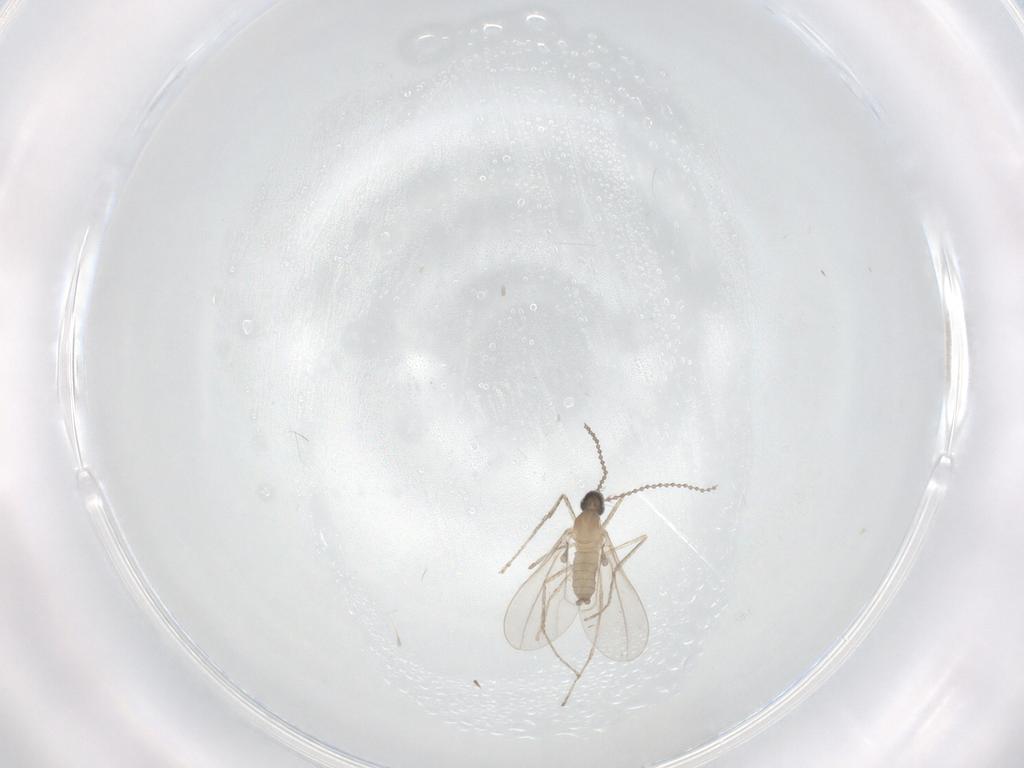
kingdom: Animalia
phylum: Arthropoda
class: Insecta
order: Diptera
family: Cecidomyiidae
